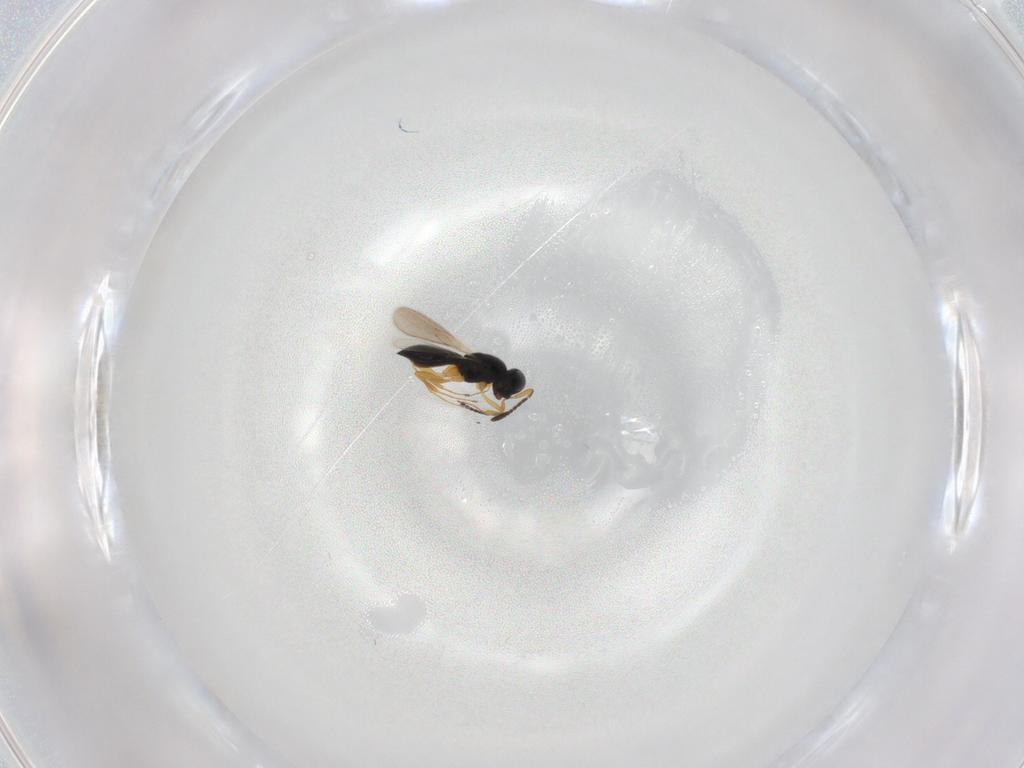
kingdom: Animalia
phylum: Arthropoda
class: Insecta
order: Hymenoptera
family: Scelionidae
